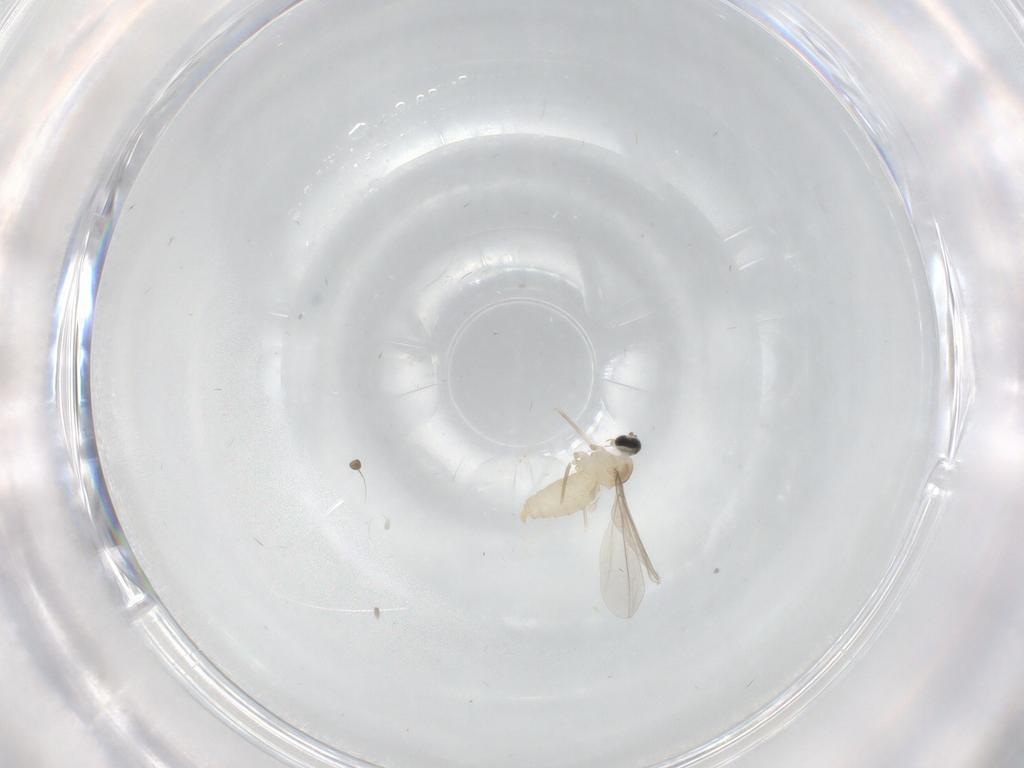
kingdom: Animalia
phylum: Arthropoda
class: Insecta
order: Diptera
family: Cecidomyiidae
